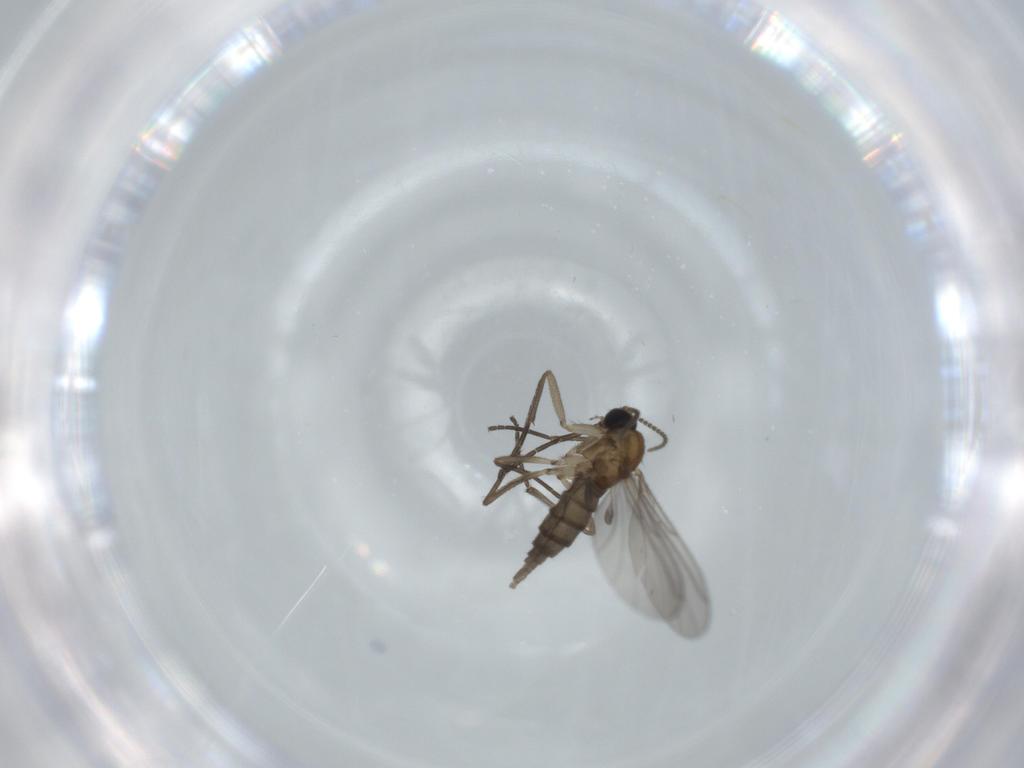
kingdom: Animalia
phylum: Arthropoda
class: Insecta
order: Diptera
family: Sciaridae
